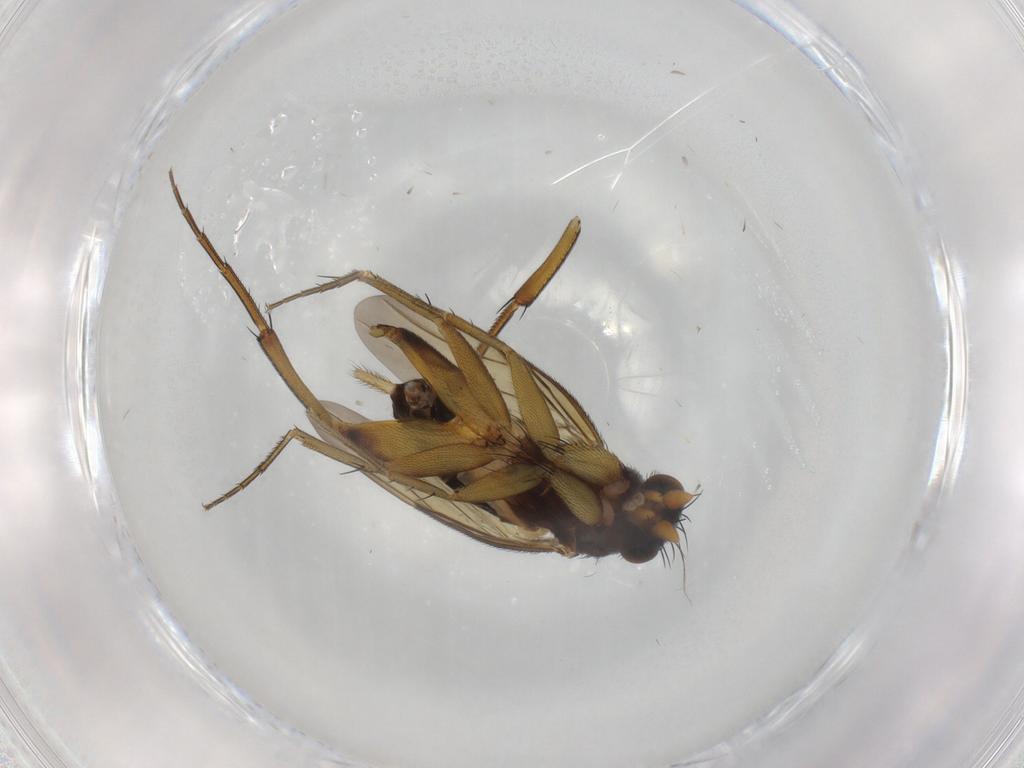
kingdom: Animalia
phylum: Arthropoda
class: Insecta
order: Diptera
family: Phoridae
